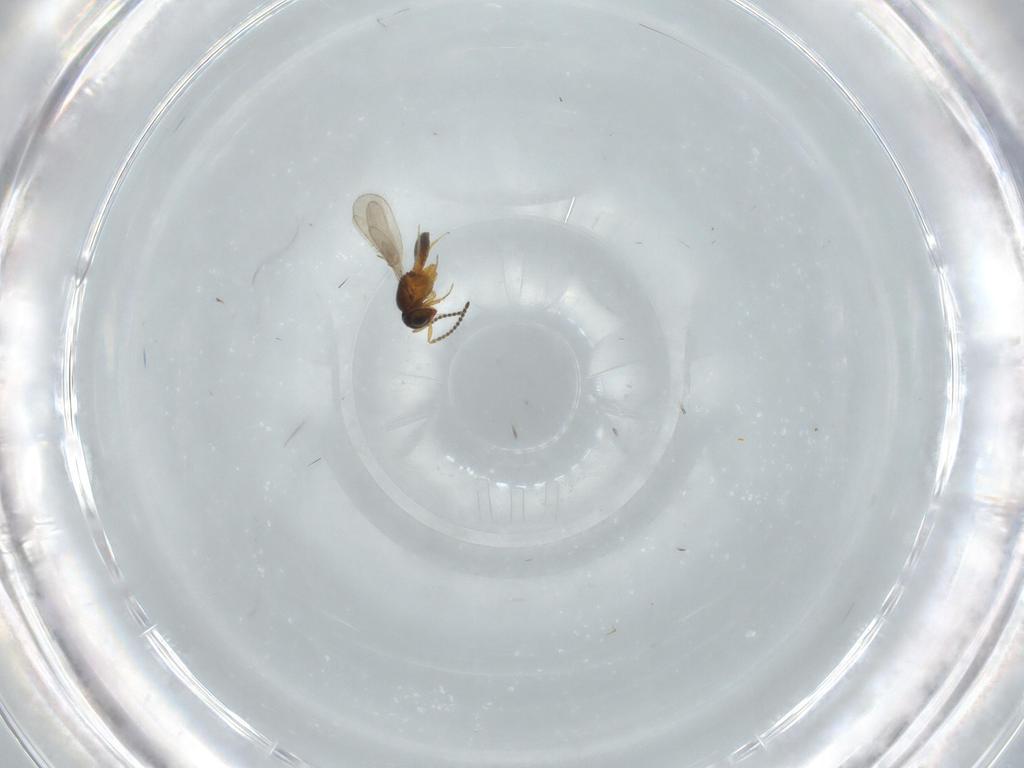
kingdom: Animalia
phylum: Arthropoda
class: Insecta
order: Hymenoptera
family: Scelionidae
